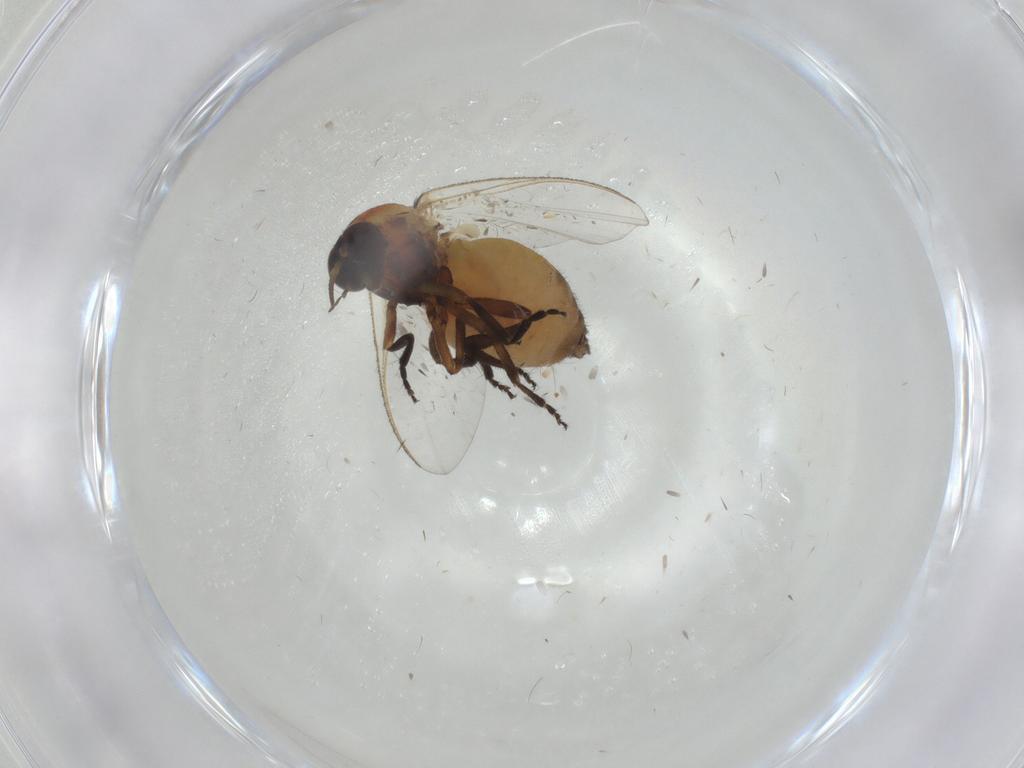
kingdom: Animalia
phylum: Arthropoda
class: Insecta
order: Diptera
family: Sphaeroceridae
